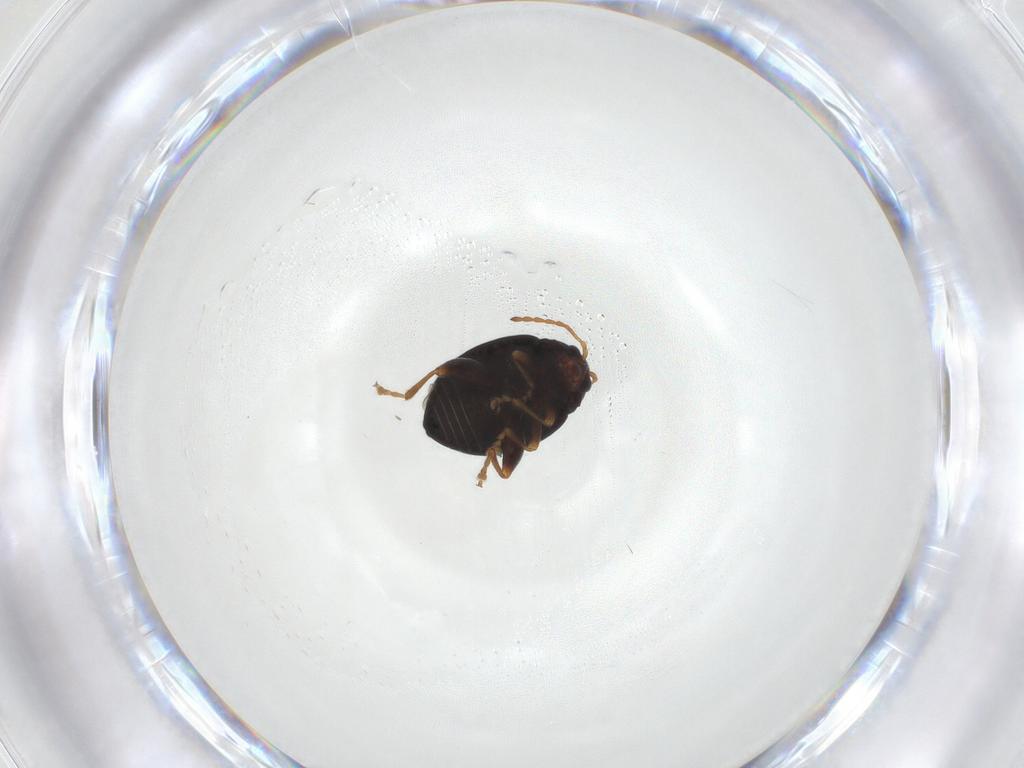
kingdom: Animalia
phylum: Arthropoda
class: Insecta
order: Coleoptera
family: Chrysomelidae
